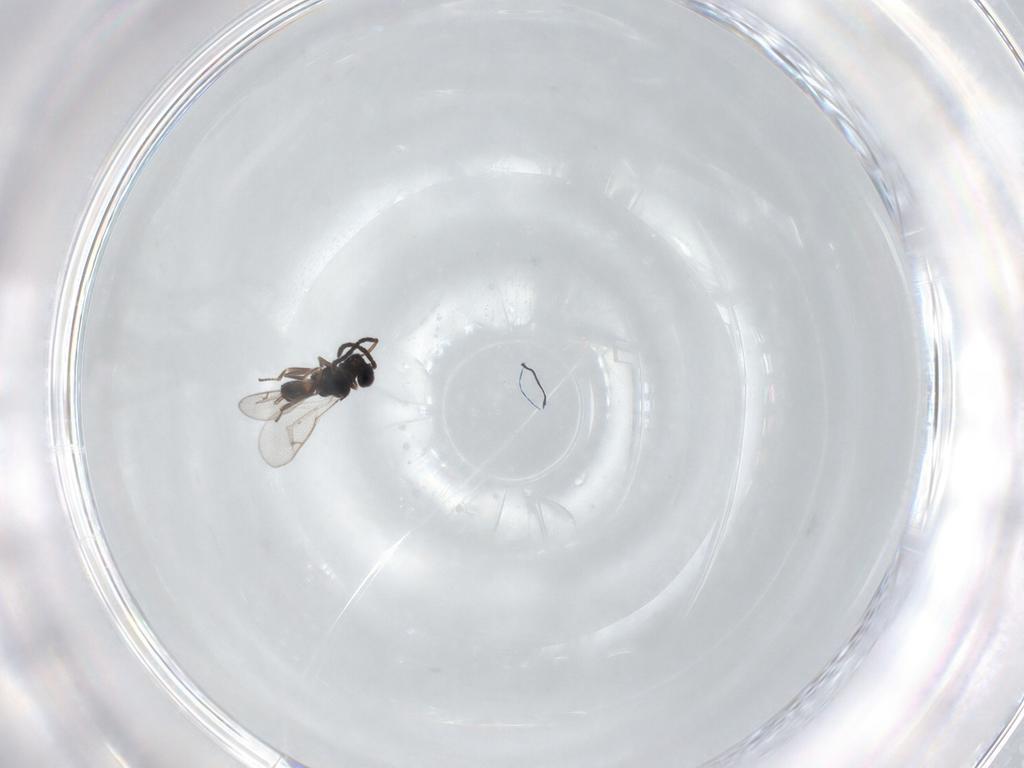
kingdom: Animalia
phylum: Arthropoda
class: Insecta
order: Hymenoptera
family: Pteromalidae
